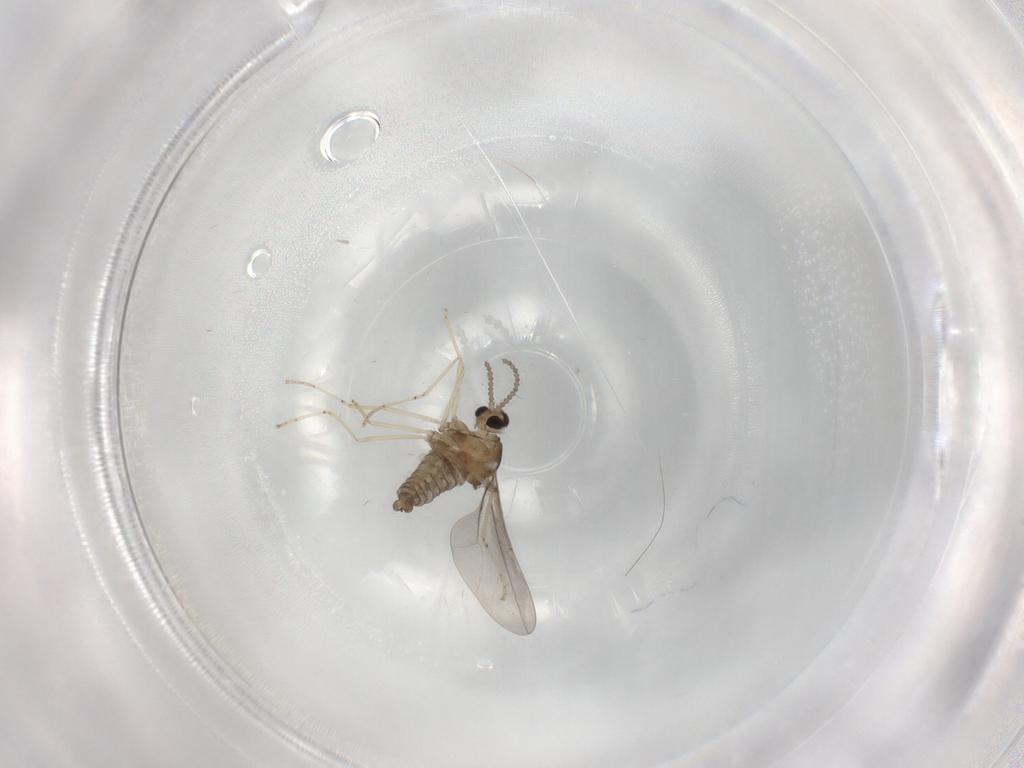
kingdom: Animalia
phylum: Arthropoda
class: Insecta
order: Diptera
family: Cecidomyiidae
